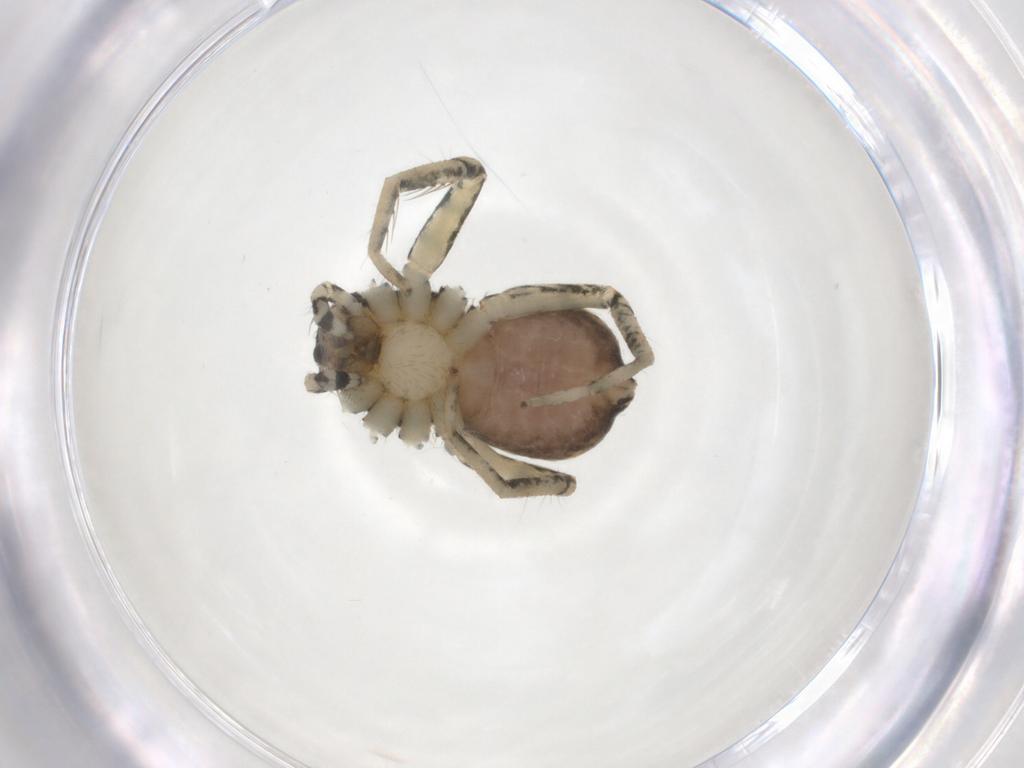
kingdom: Animalia
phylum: Arthropoda
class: Arachnida
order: Araneae
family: Selenopidae
